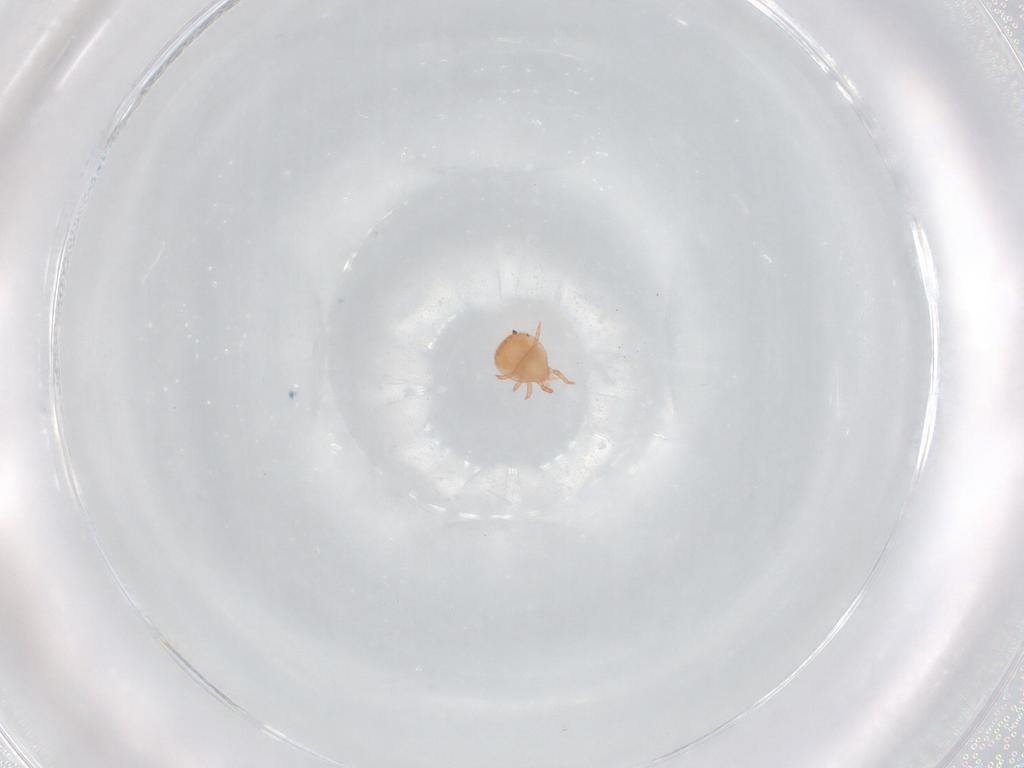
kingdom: Animalia
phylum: Arthropoda
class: Arachnida
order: Mesostigmata
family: Zerconidae
